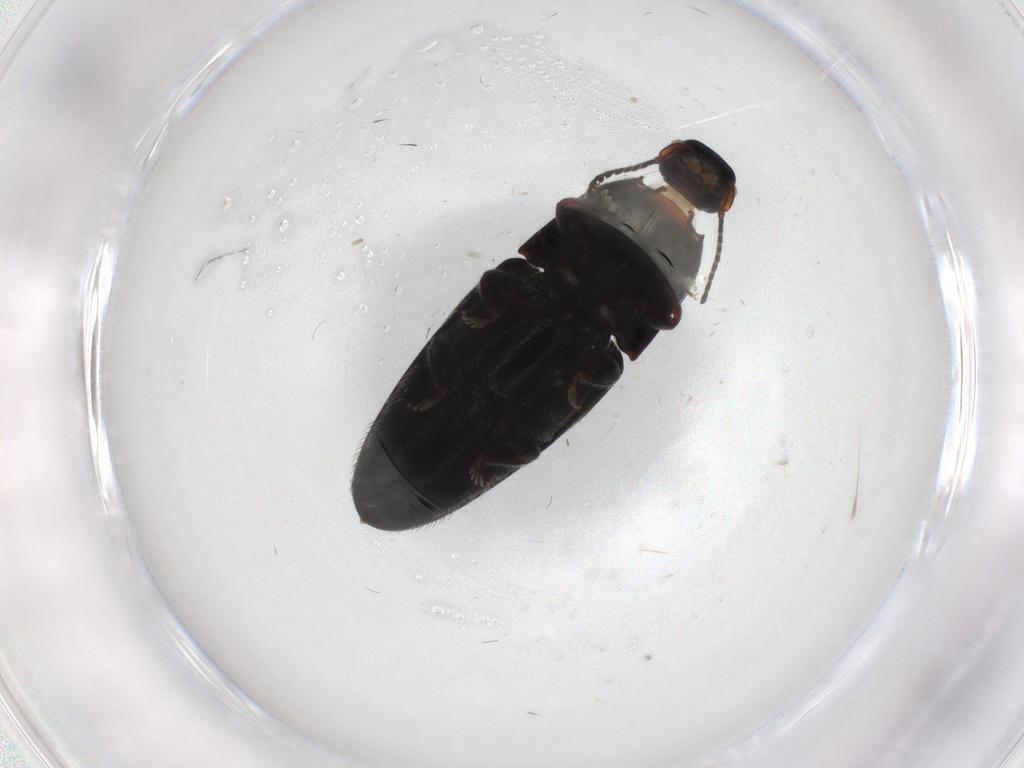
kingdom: Animalia
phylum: Arthropoda
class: Insecta
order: Coleoptera
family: Elateridae
